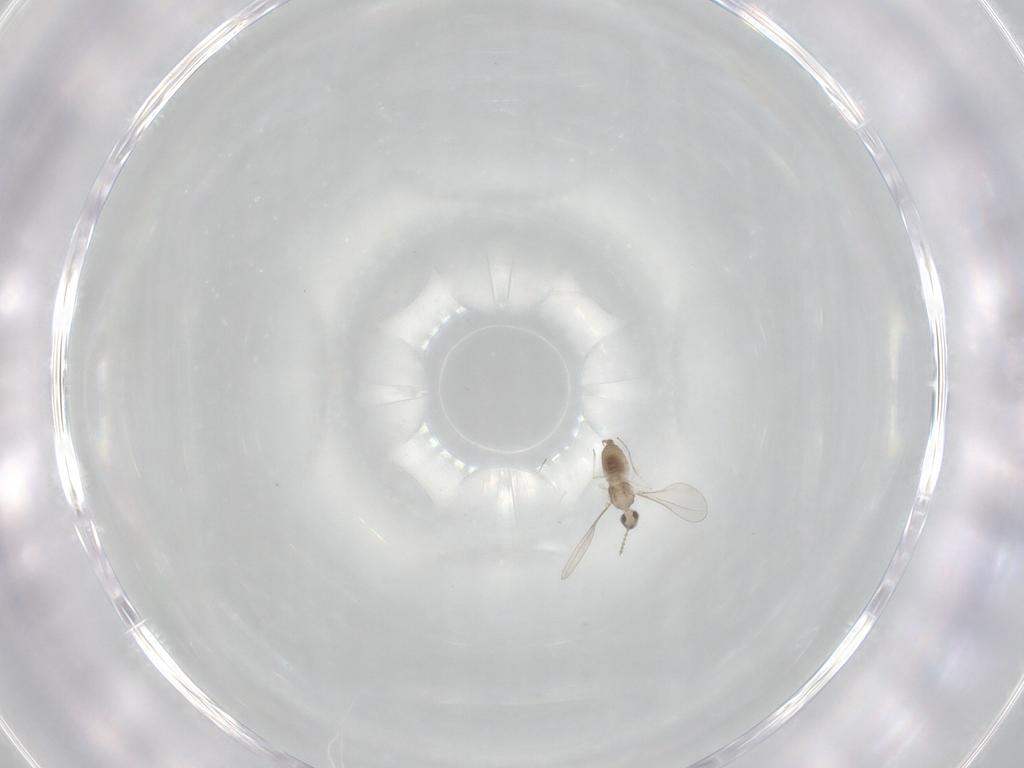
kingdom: Animalia
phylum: Arthropoda
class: Insecta
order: Diptera
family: Cecidomyiidae
